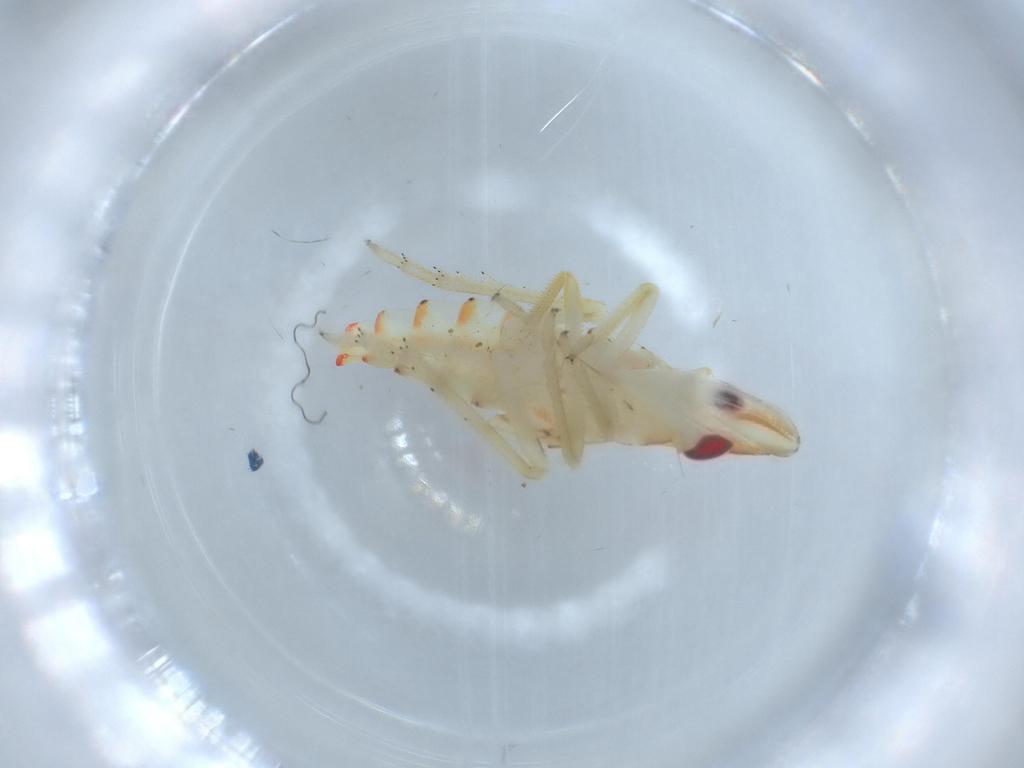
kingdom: Animalia
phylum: Arthropoda
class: Insecta
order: Hemiptera
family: Tropiduchidae
